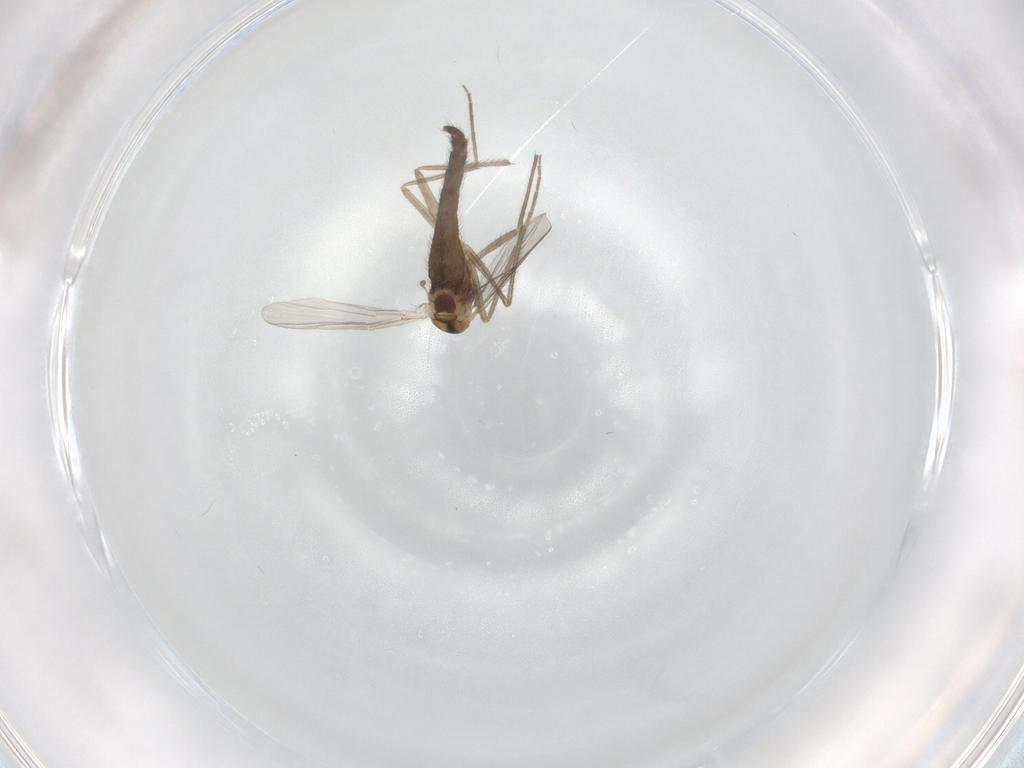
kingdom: Animalia
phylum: Arthropoda
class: Insecta
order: Diptera
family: Chironomidae
